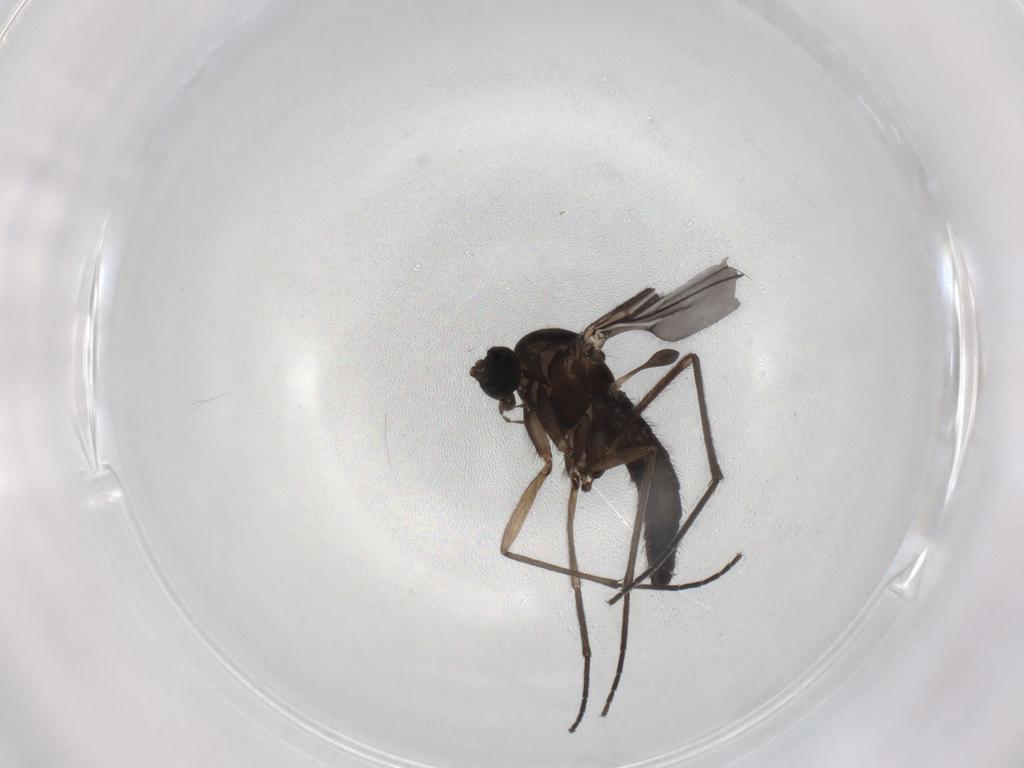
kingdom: Animalia
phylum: Arthropoda
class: Insecta
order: Diptera
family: Sciaridae
